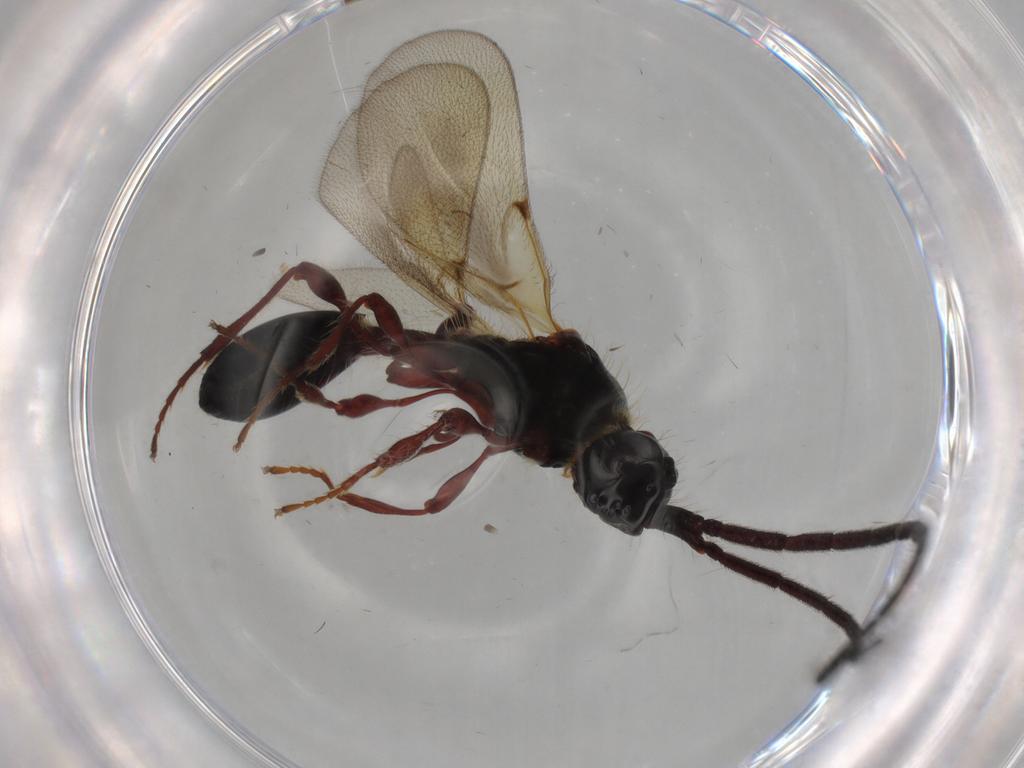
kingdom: Animalia
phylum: Arthropoda
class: Insecta
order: Hymenoptera
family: Diapriidae
